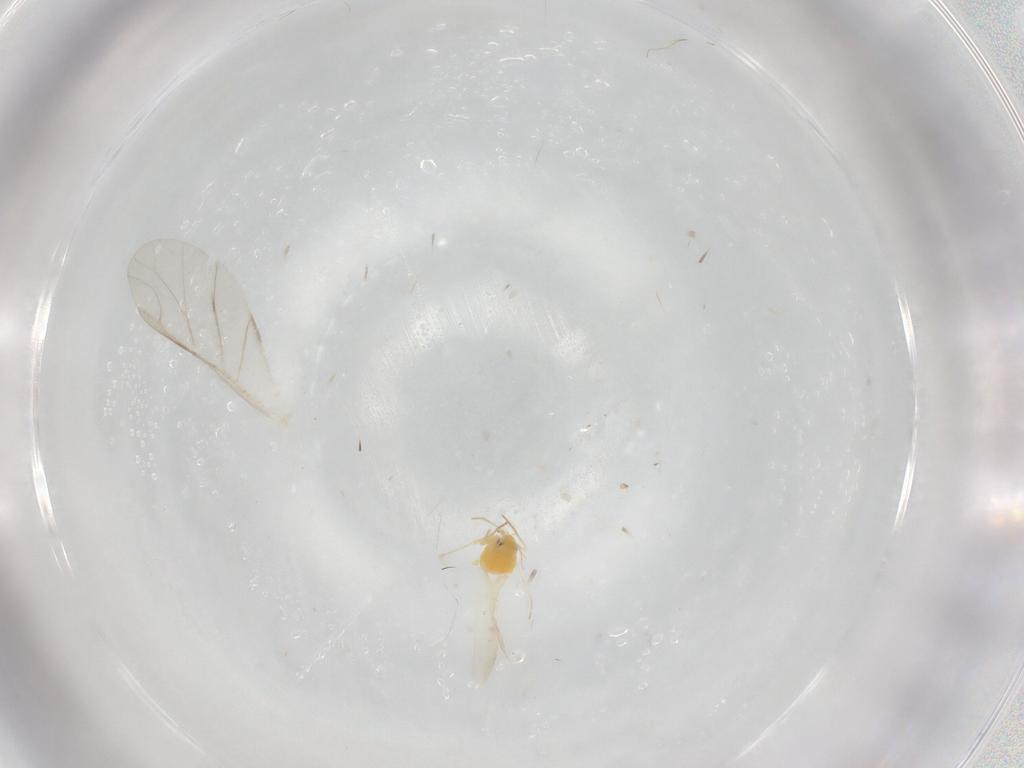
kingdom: Animalia
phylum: Arthropoda
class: Insecta
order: Hemiptera
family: Aphididae
